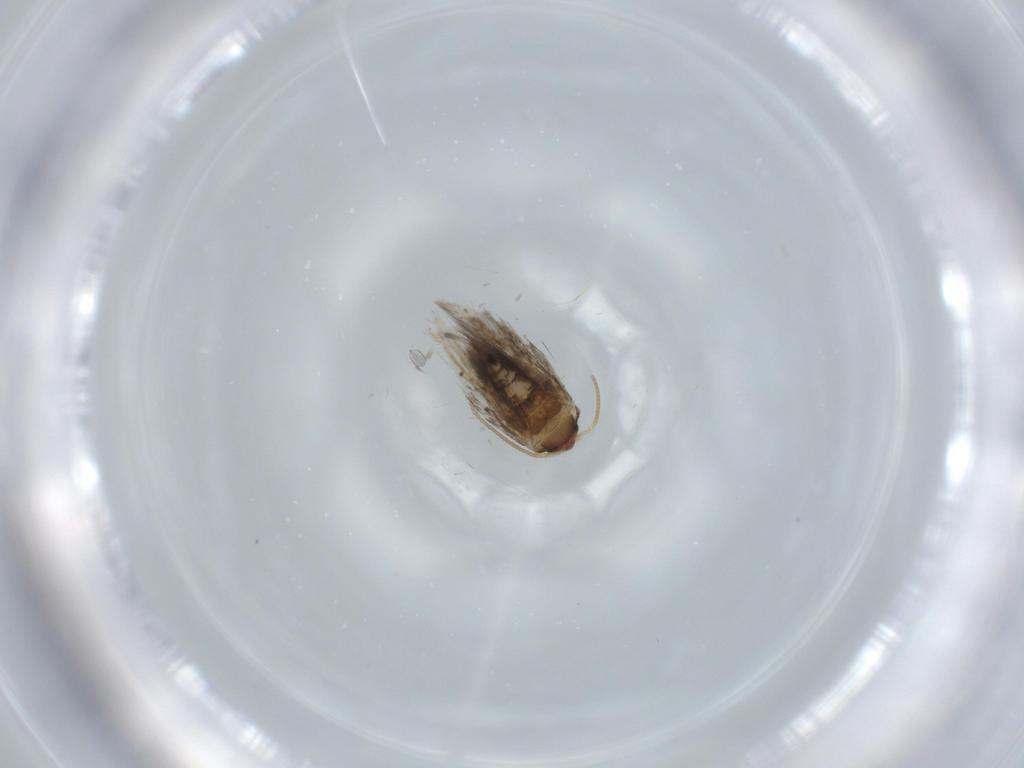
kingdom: Animalia
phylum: Arthropoda
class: Insecta
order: Lepidoptera
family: Nepticulidae
